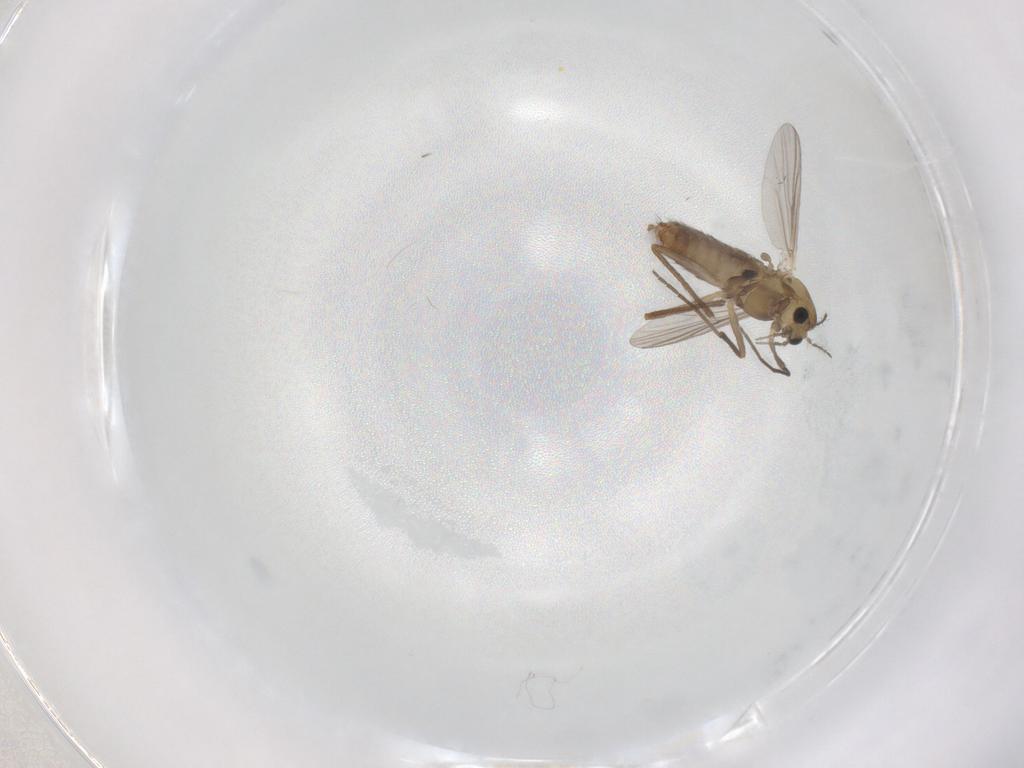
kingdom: Animalia
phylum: Arthropoda
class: Insecta
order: Diptera
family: Chironomidae
